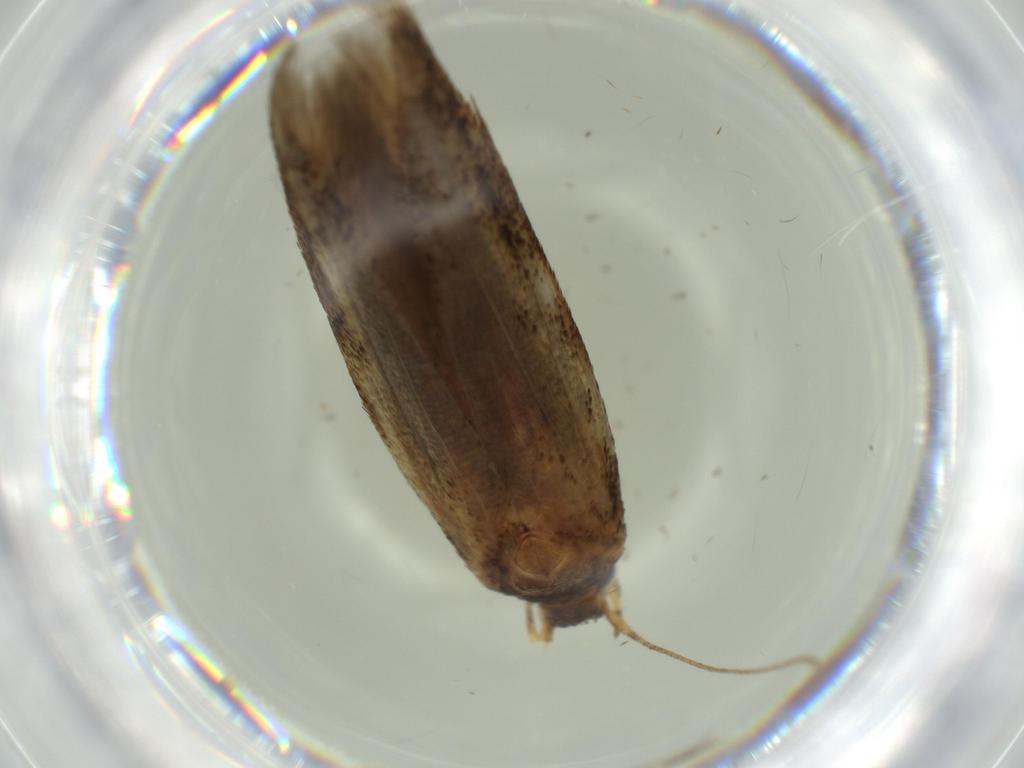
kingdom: Animalia
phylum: Arthropoda
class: Insecta
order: Lepidoptera
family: Blastobasidae
